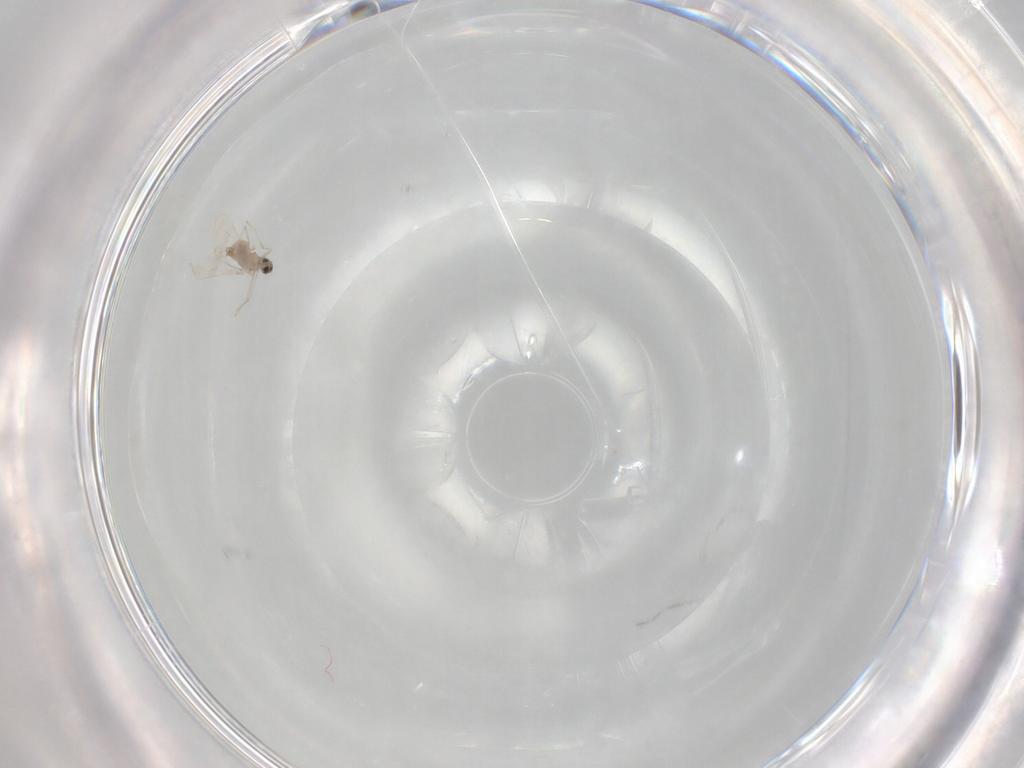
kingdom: Animalia
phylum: Arthropoda
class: Insecta
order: Diptera
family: Cecidomyiidae
